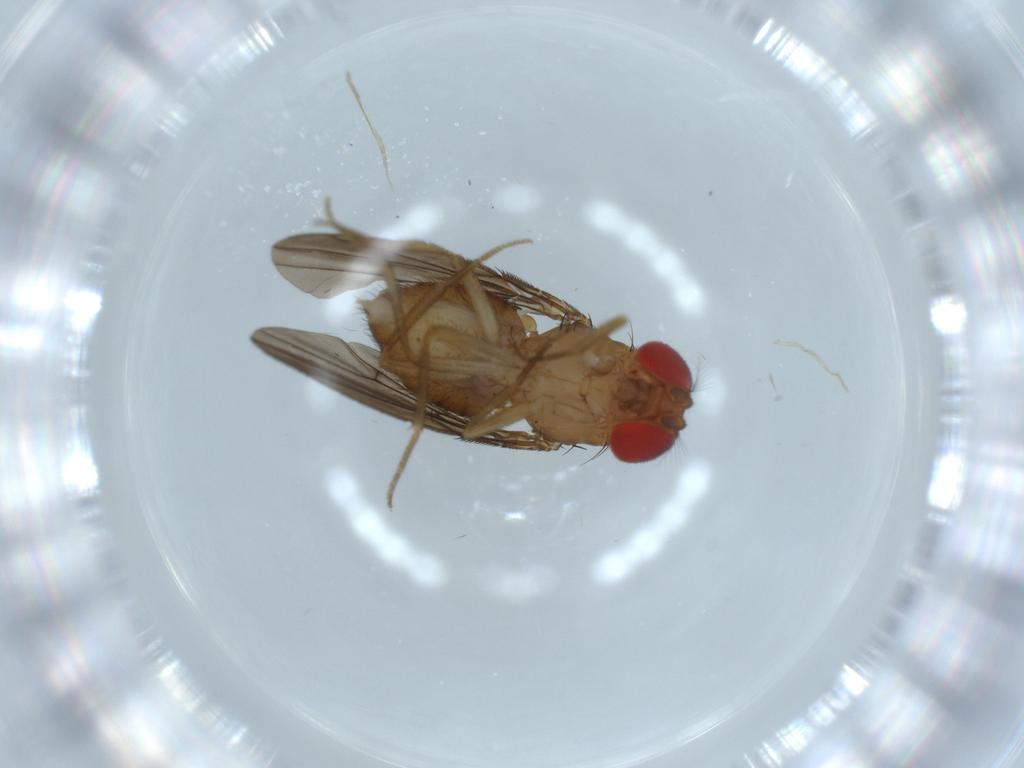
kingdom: Animalia
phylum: Arthropoda
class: Insecta
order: Diptera
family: Drosophilidae
